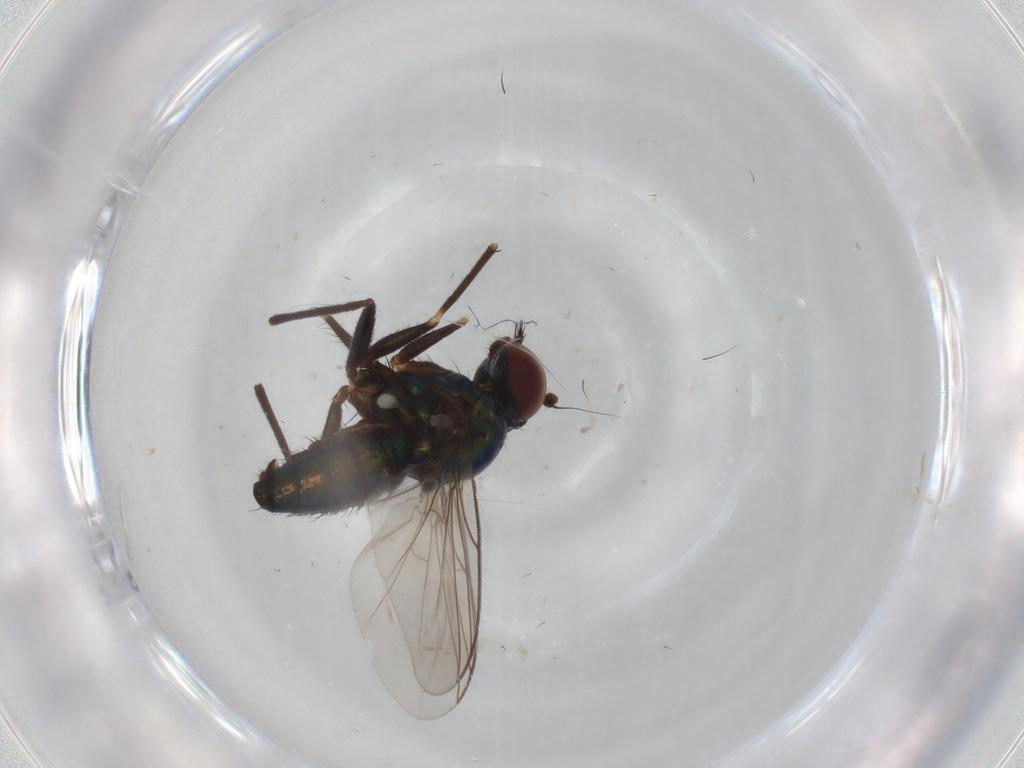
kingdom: Animalia
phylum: Arthropoda
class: Insecta
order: Diptera
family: Dolichopodidae
